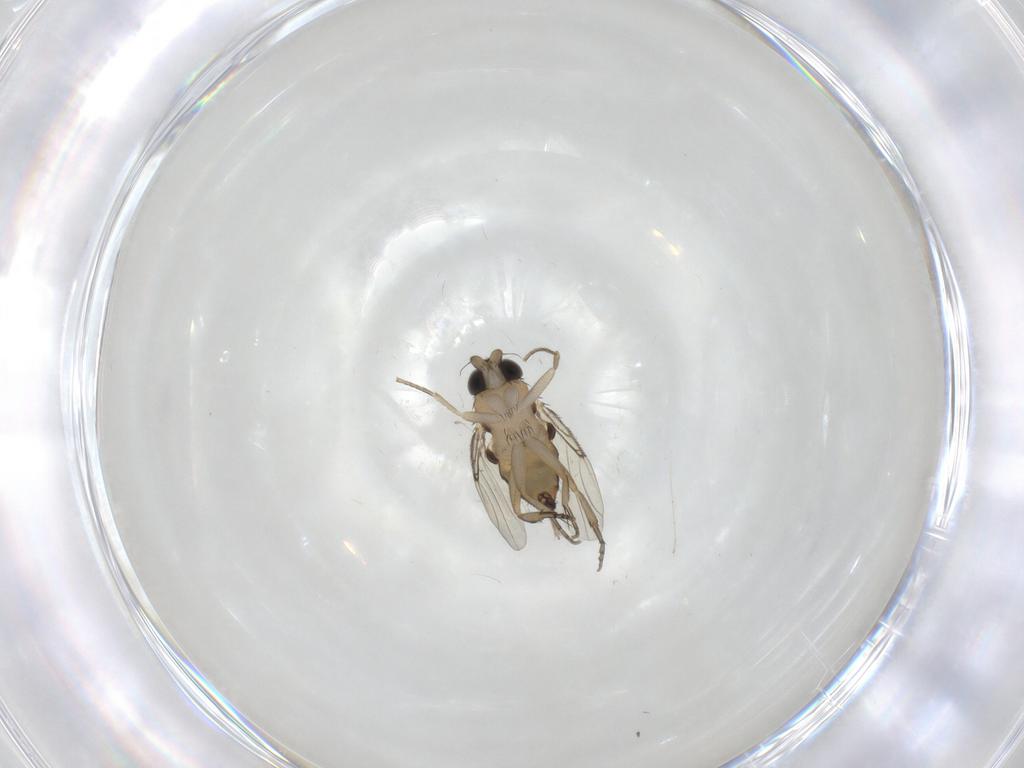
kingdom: Animalia
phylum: Arthropoda
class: Insecta
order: Diptera
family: Phoridae
